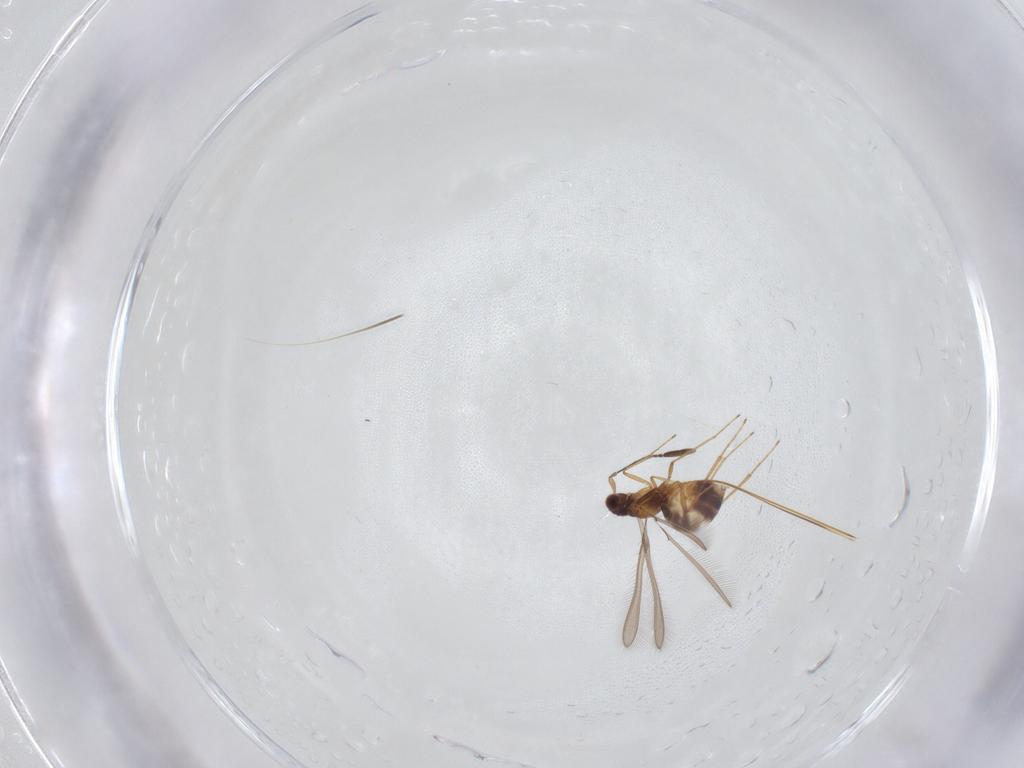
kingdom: Animalia
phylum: Arthropoda
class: Insecta
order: Hymenoptera
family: Mymaridae
